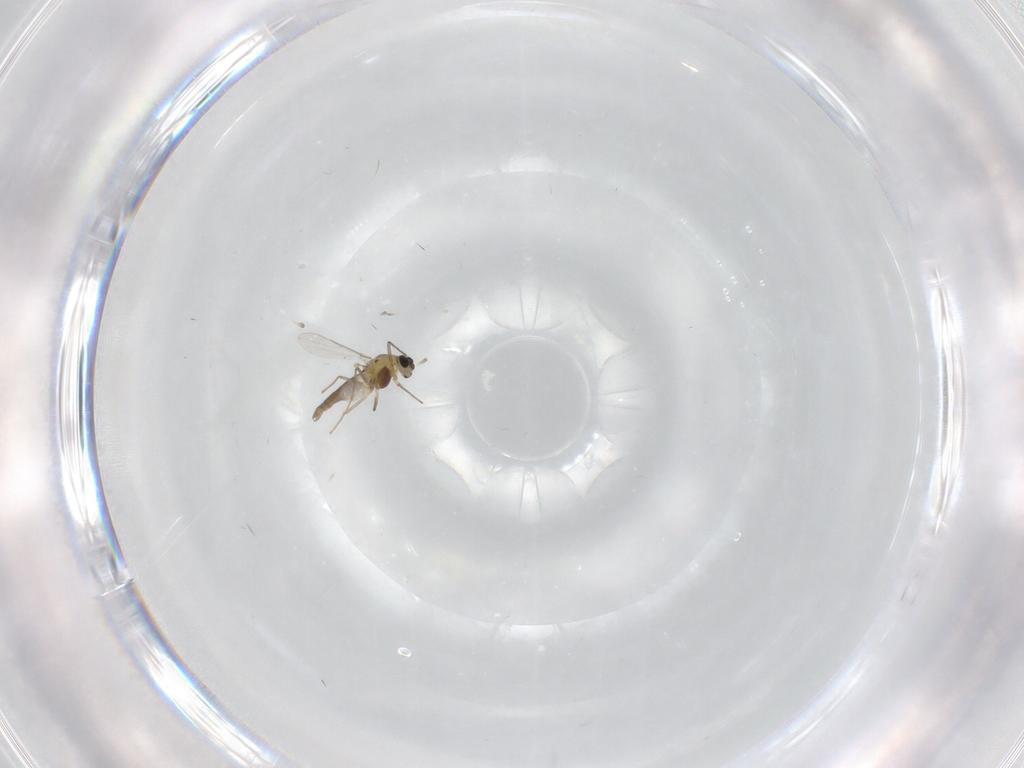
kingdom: Animalia
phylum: Arthropoda
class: Insecta
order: Diptera
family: Chironomidae
